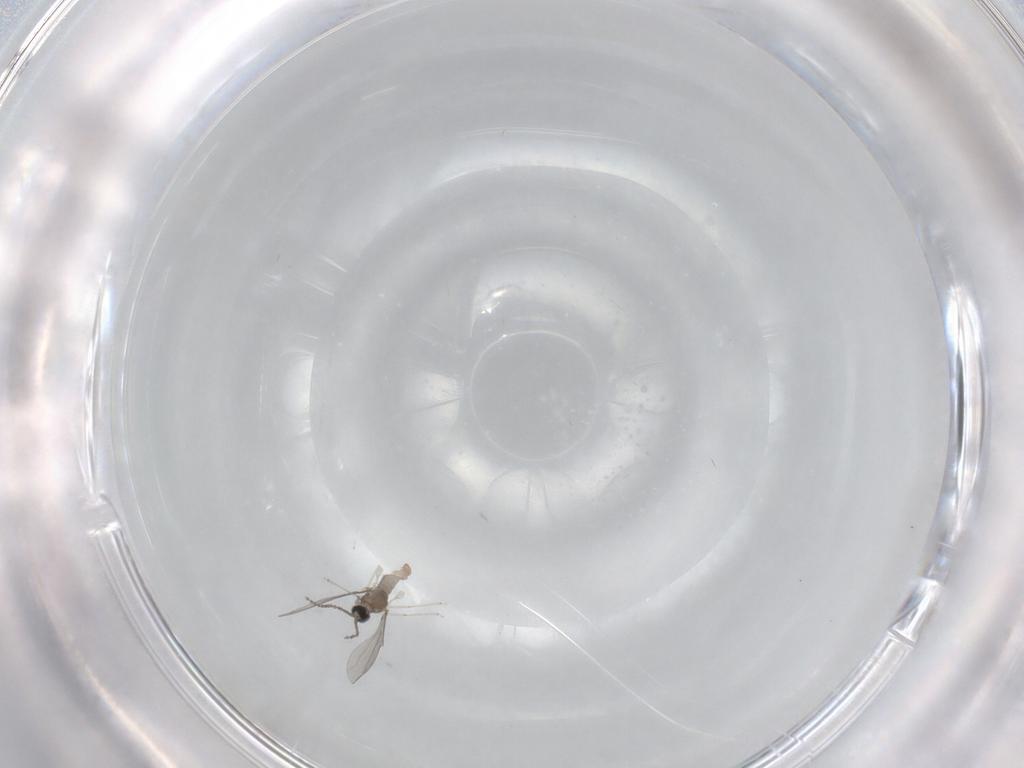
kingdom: Animalia
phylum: Arthropoda
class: Insecta
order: Diptera
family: Cecidomyiidae
